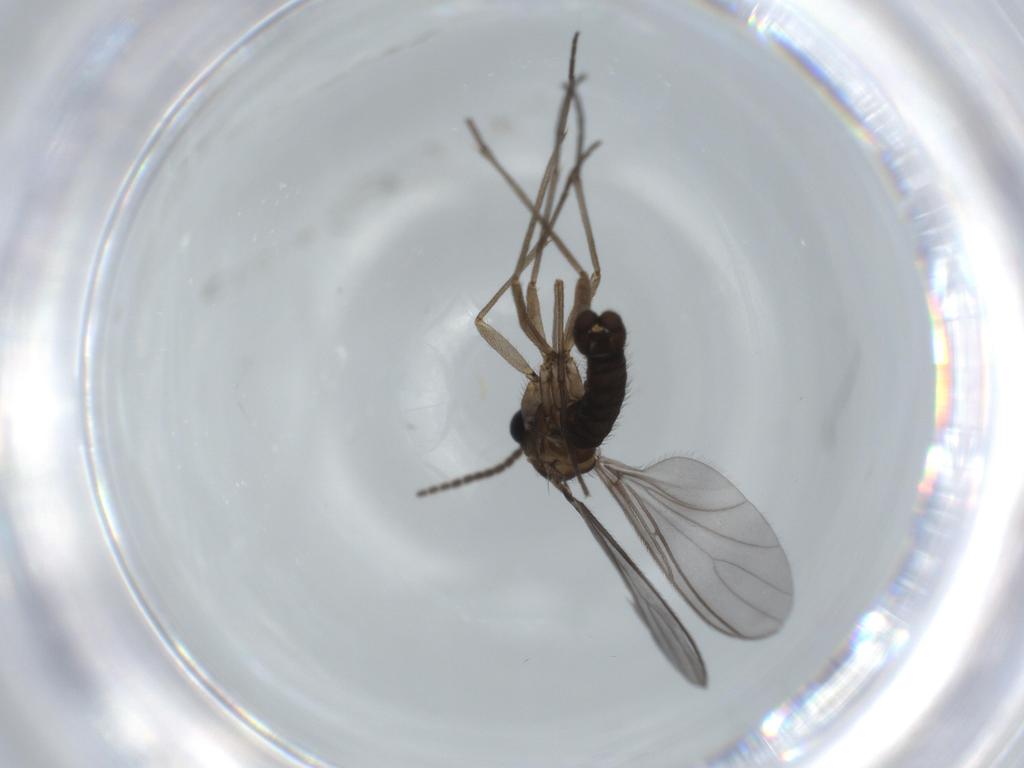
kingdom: Animalia
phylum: Arthropoda
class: Insecta
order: Diptera
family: Sciaridae
